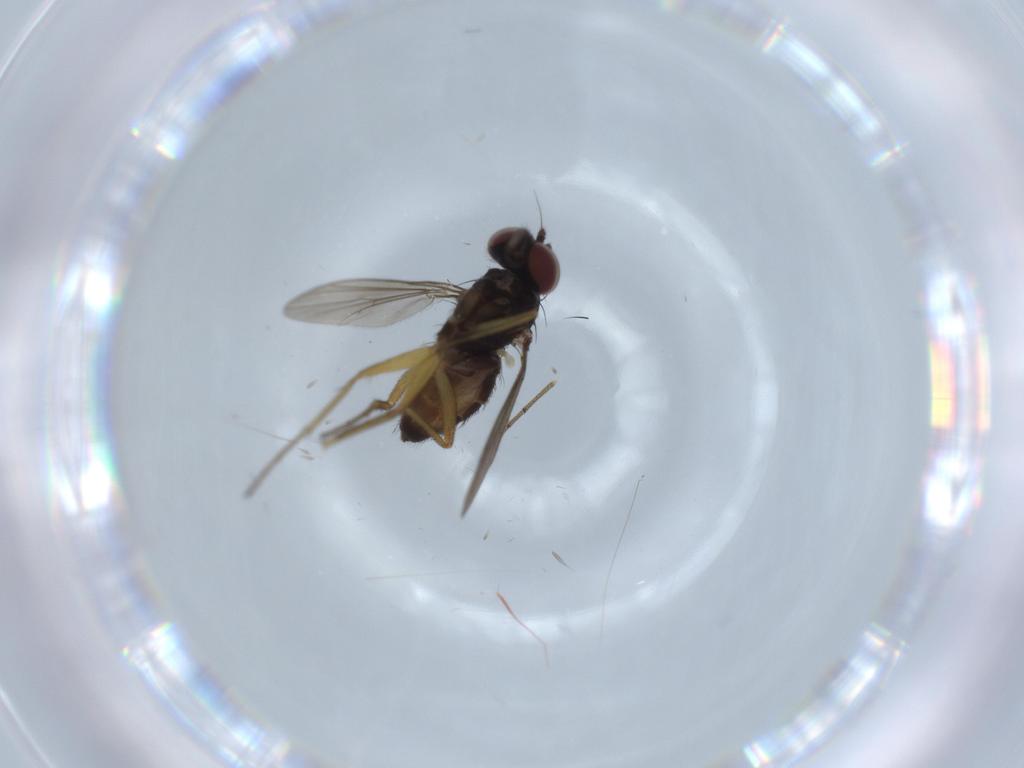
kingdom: Animalia
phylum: Arthropoda
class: Insecta
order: Diptera
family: Dolichopodidae
